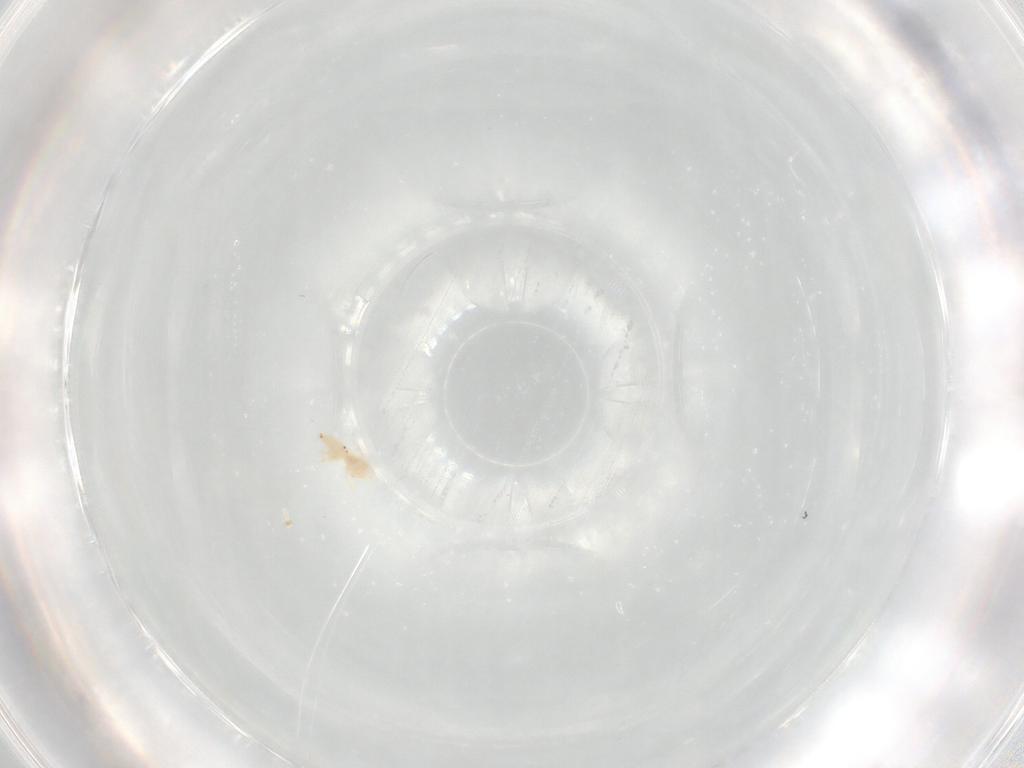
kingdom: Animalia
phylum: Arthropoda
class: Arachnida
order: Trombidiformes
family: Bdellidae
